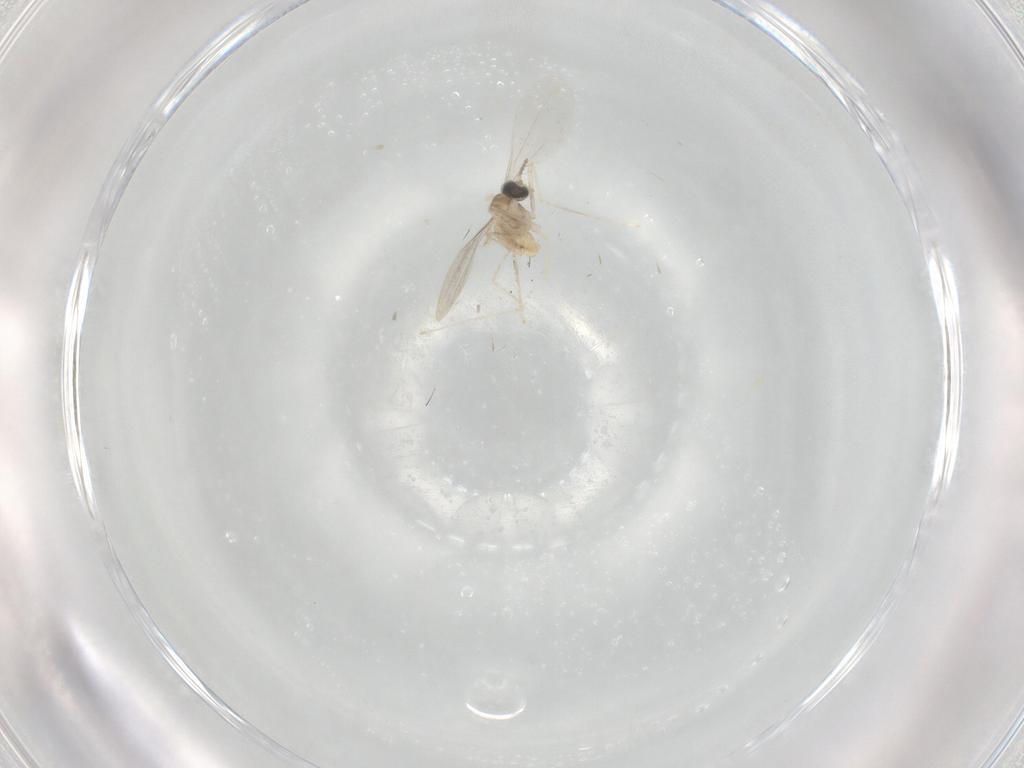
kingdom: Animalia
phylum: Arthropoda
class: Insecta
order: Diptera
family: Cecidomyiidae
